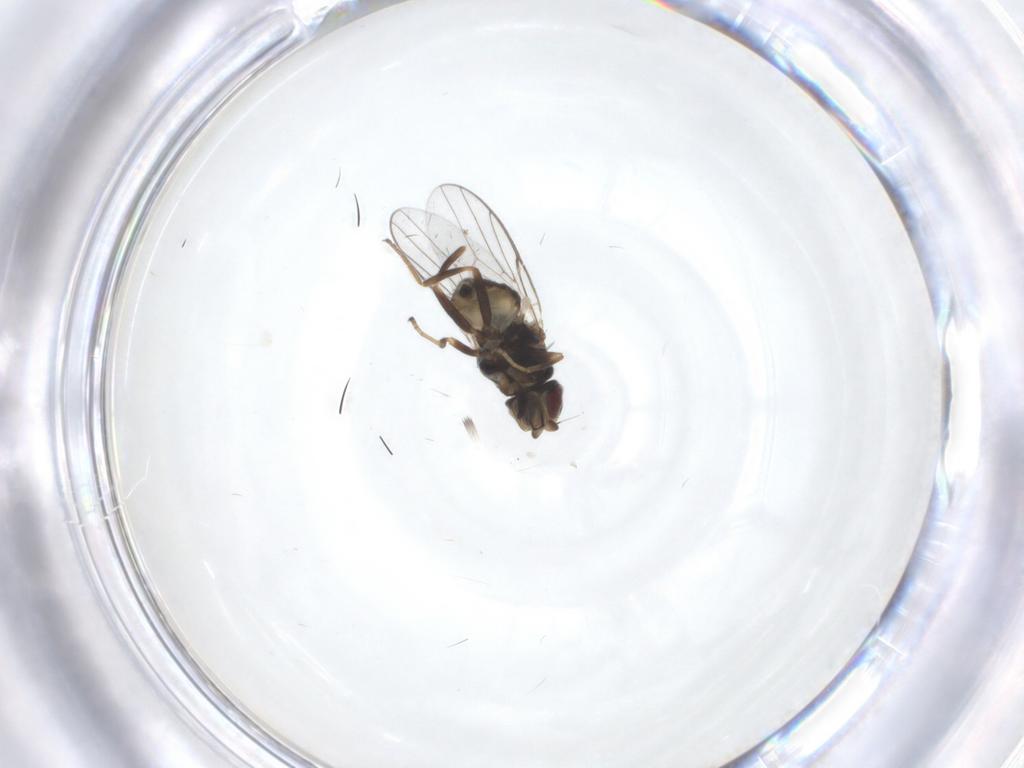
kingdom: Animalia
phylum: Arthropoda
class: Insecta
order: Diptera
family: Chloropidae
